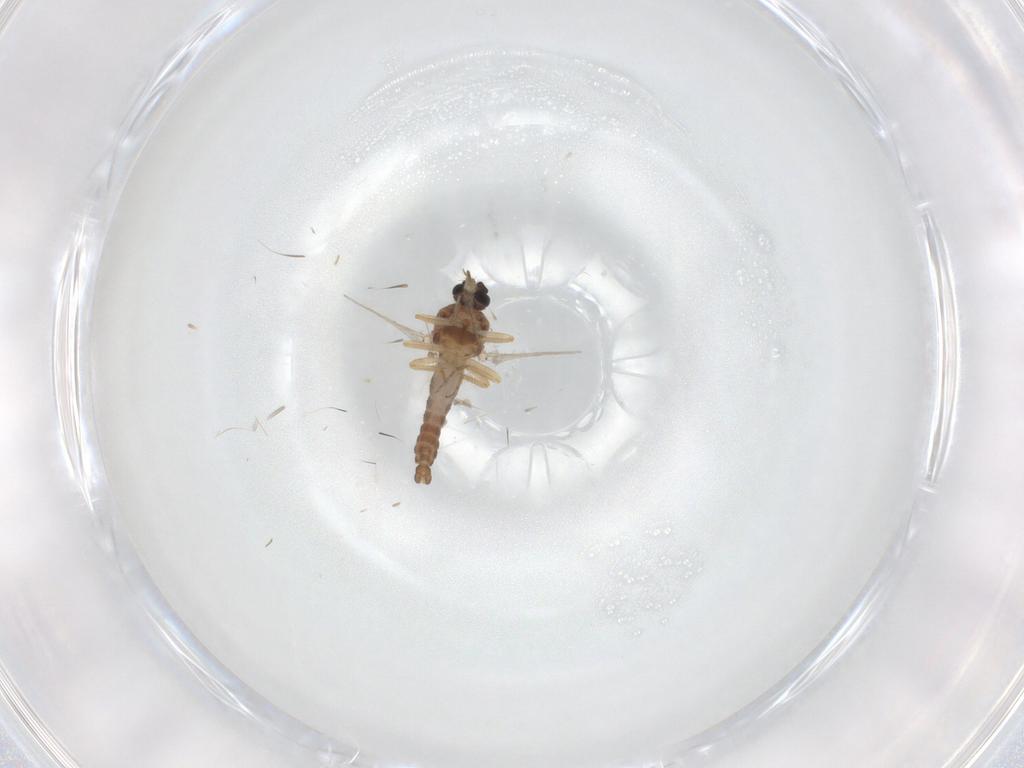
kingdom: Animalia
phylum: Arthropoda
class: Insecta
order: Diptera
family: Ceratopogonidae
